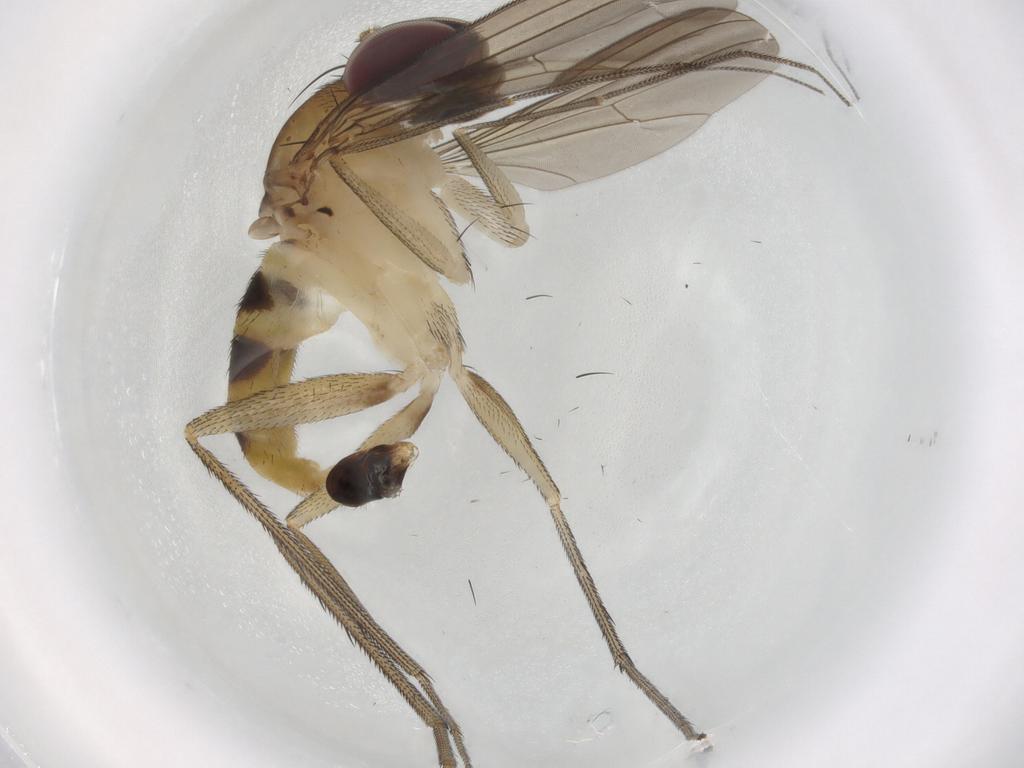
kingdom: Animalia
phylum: Arthropoda
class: Insecta
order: Diptera
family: Dolichopodidae
